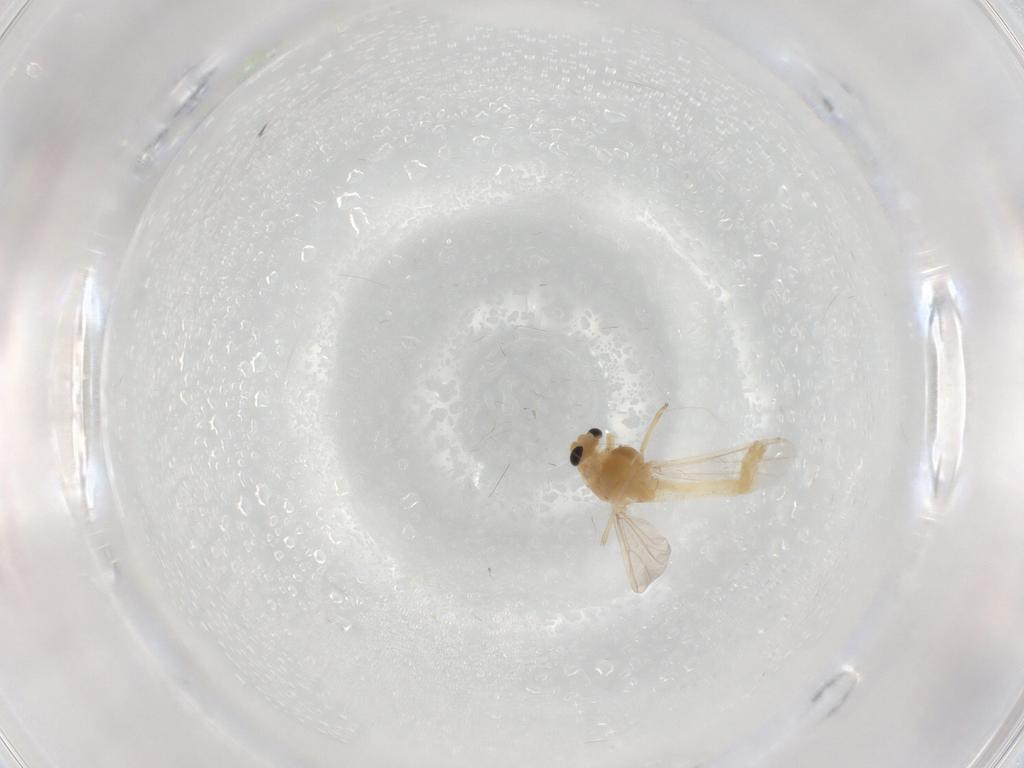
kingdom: Animalia
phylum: Arthropoda
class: Insecta
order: Diptera
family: Chironomidae
